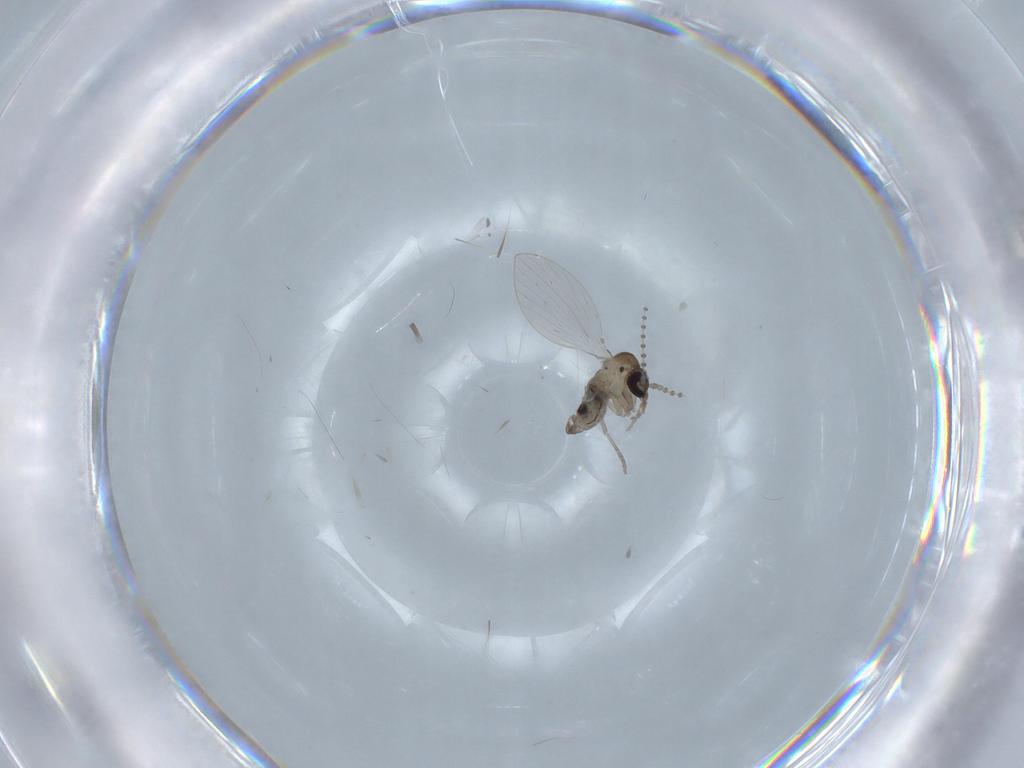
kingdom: Animalia
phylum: Arthropoda
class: Insecta
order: Diptera
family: Psychodidae
